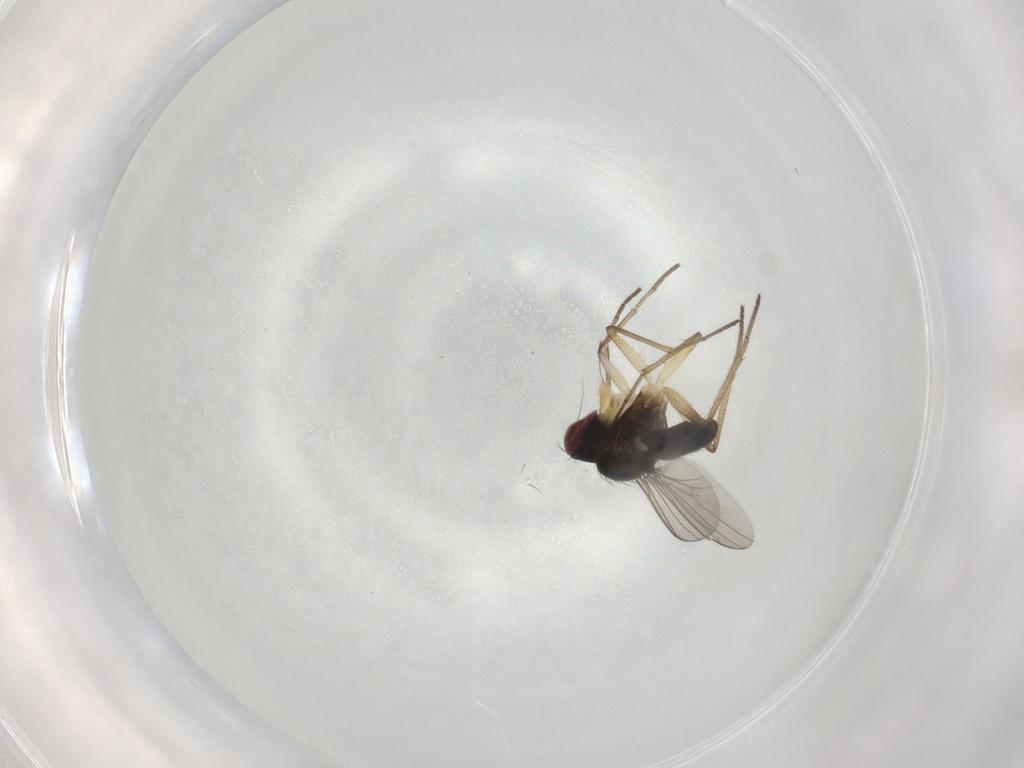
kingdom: Animalia
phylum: Arthropoda
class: Insecta
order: Diptera
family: Dolichopodidae
